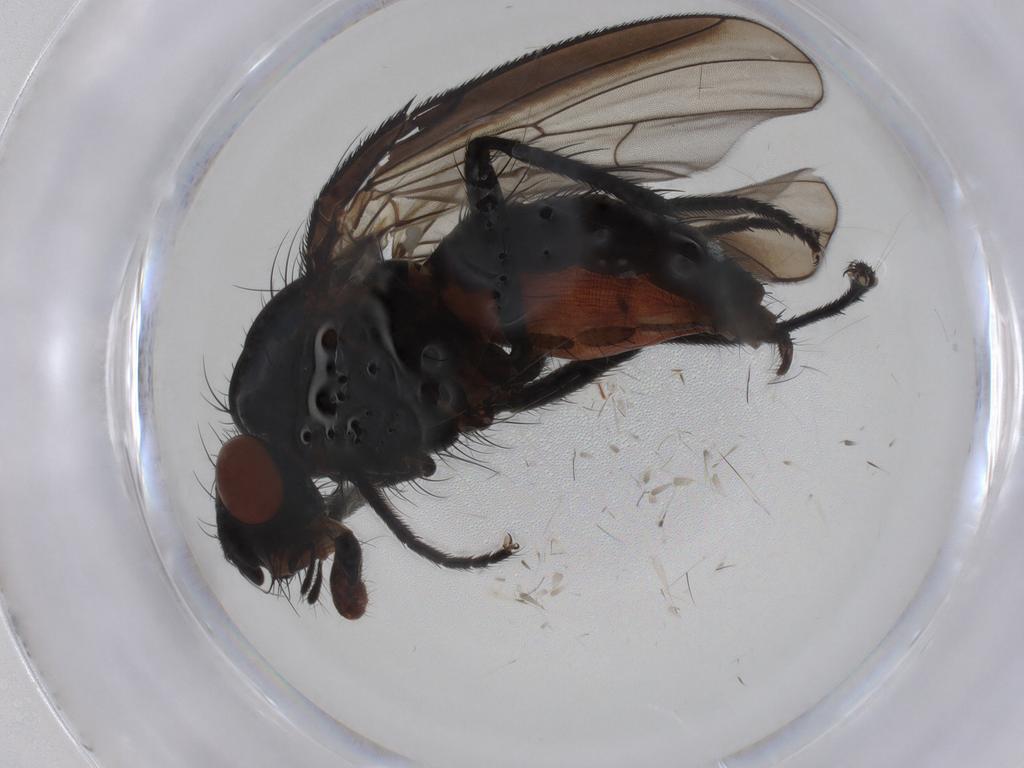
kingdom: Animalia
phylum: Arthropoda
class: Insecta
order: Diptera
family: Anthomyiidae
